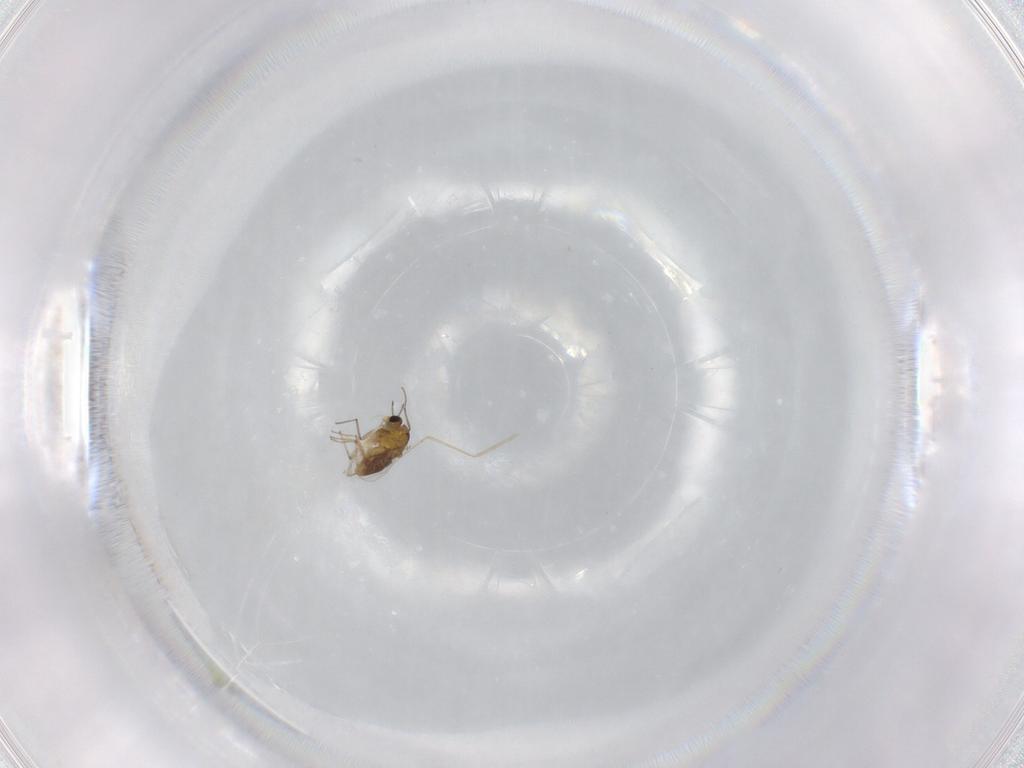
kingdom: Animalia
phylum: Arthropoda
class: Insecta
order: Diptera
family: Cecidomyiidae
